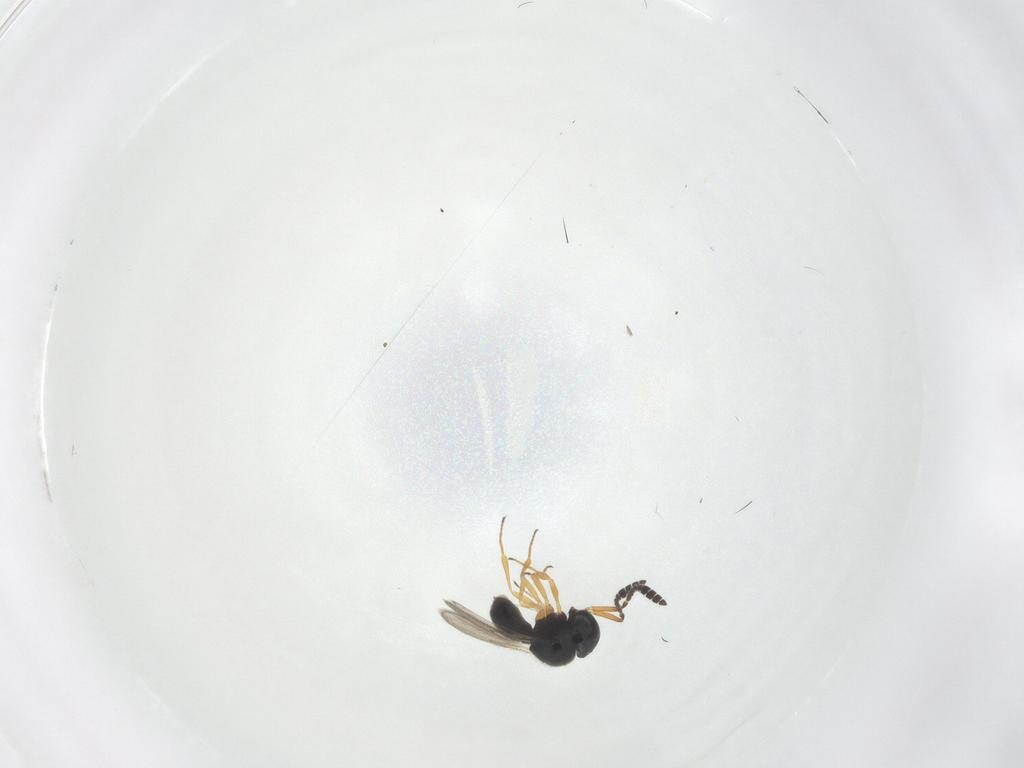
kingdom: Animalia
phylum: Arthropoda
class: Insecta
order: Hymenoptera
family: Scelionidae
